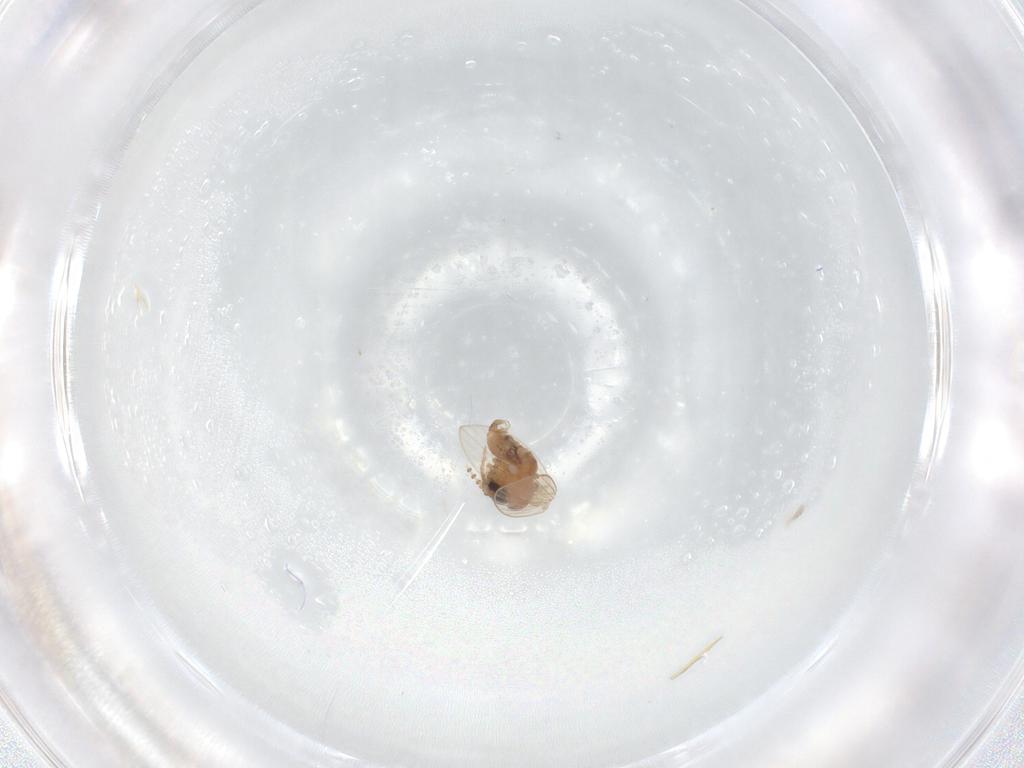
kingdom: Animalia
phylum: Arthropoda
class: Insecta
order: Diptera
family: Psychodidae
